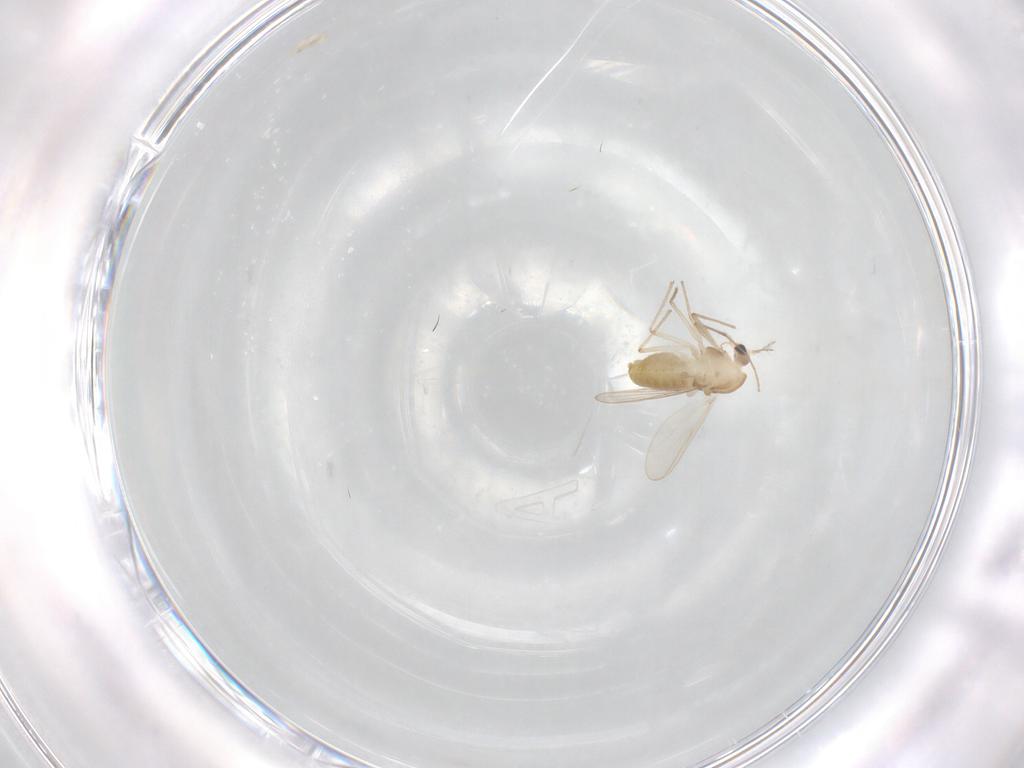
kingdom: Animalia
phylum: Arthropoda
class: Insecta
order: Diptera
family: Chironomidae
